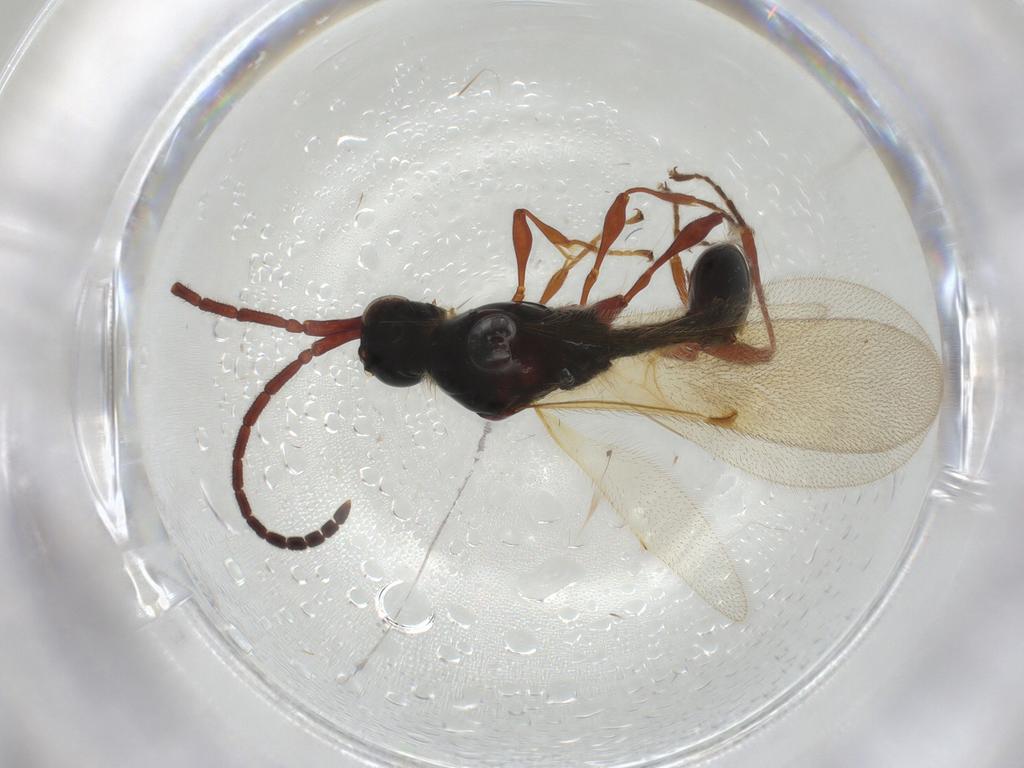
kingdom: Animalia
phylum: Arthropoda
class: Insecta
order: Hymenoptera
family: Diapriidae
